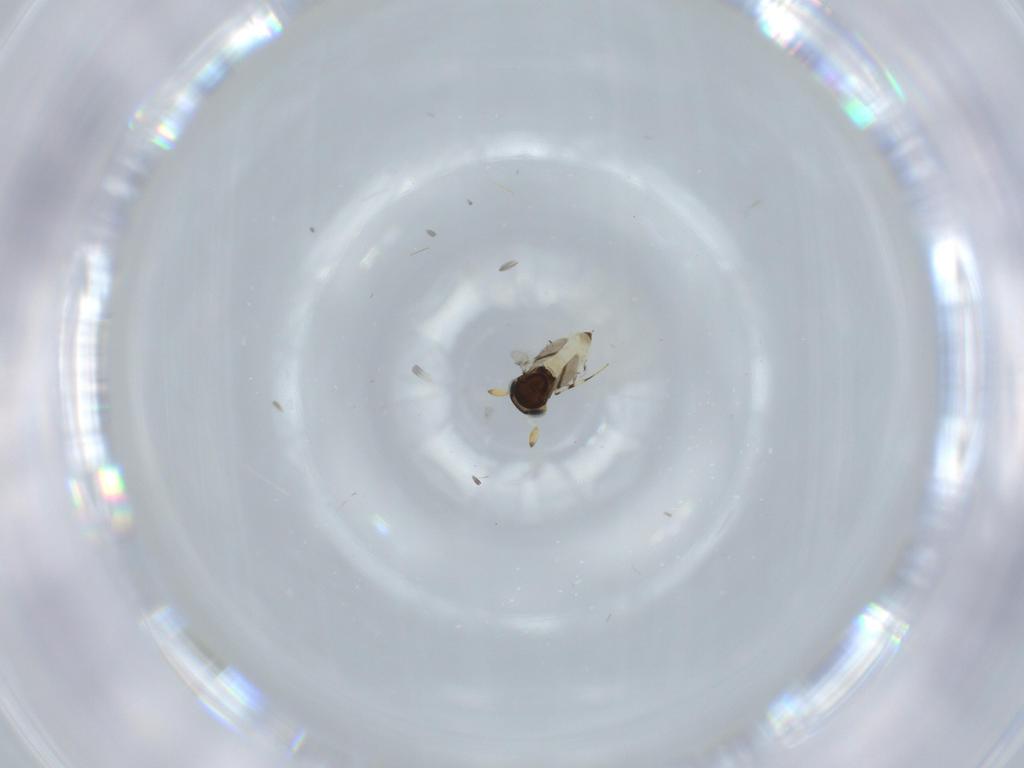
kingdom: Animalia
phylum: Arthropoda
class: Insecta
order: Hymenoptera
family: Scelionidae
